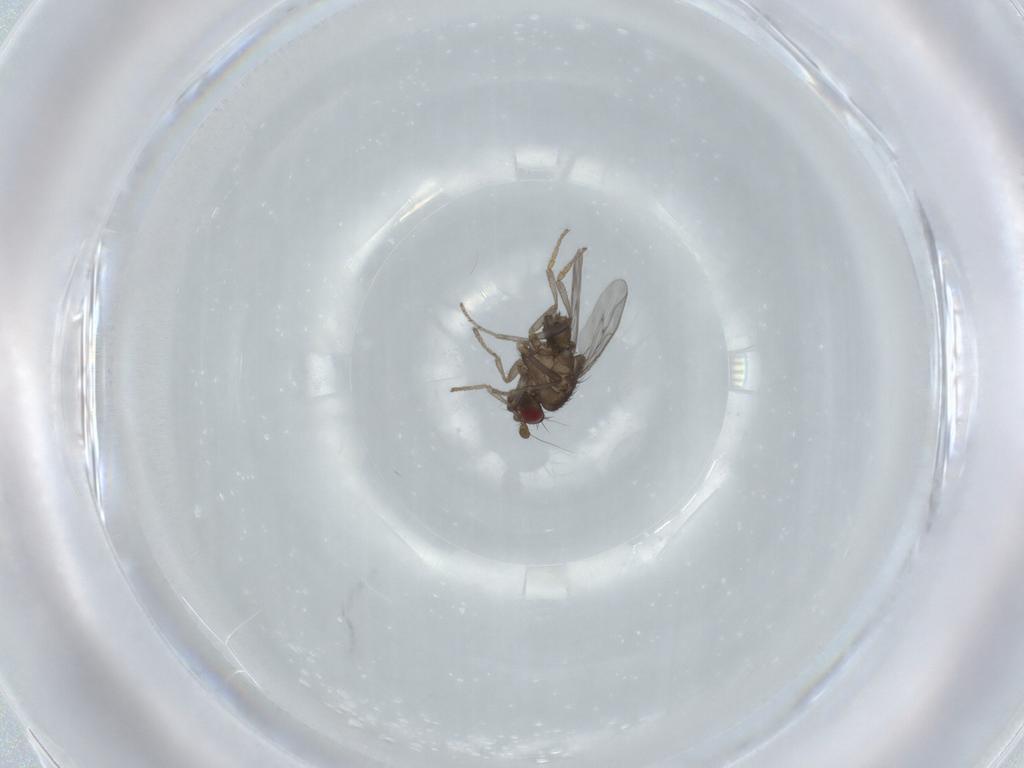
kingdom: Animalia
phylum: Arthropoda
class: Insecta
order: Diptera
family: Sphaeroceridae
